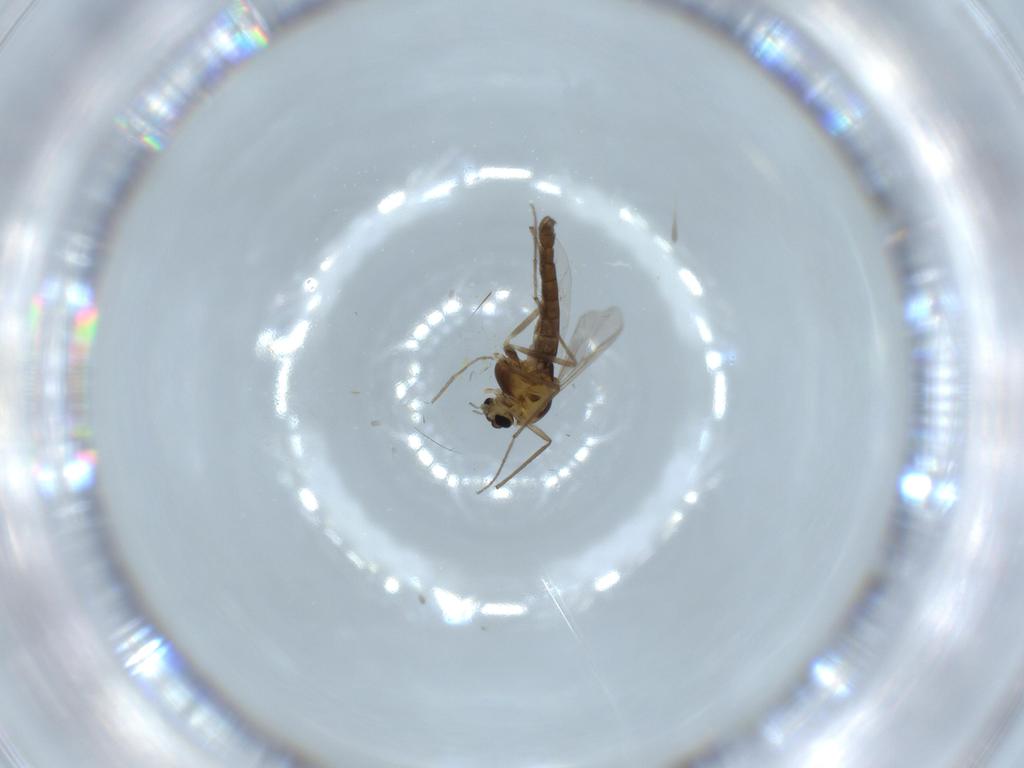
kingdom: Animalia
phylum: Arthropoda
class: Insecta
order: Diptera
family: Chironomidae
